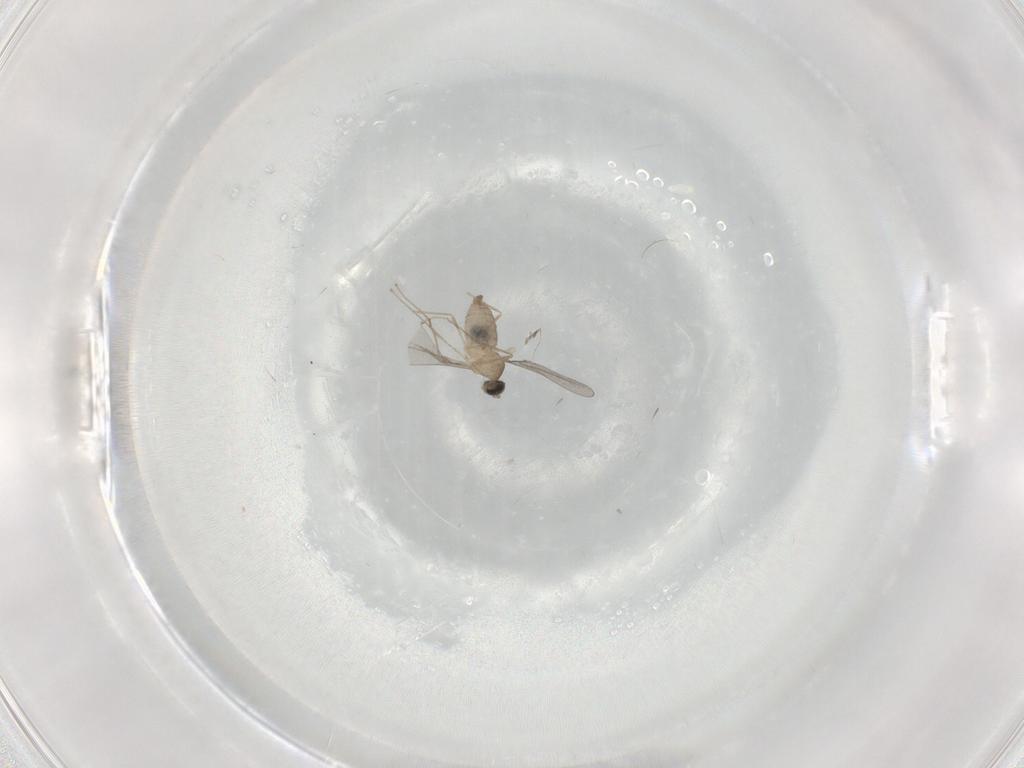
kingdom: Animalia
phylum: Arthropoda
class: Insecta
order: Diptera
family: Cecidomyiidae
